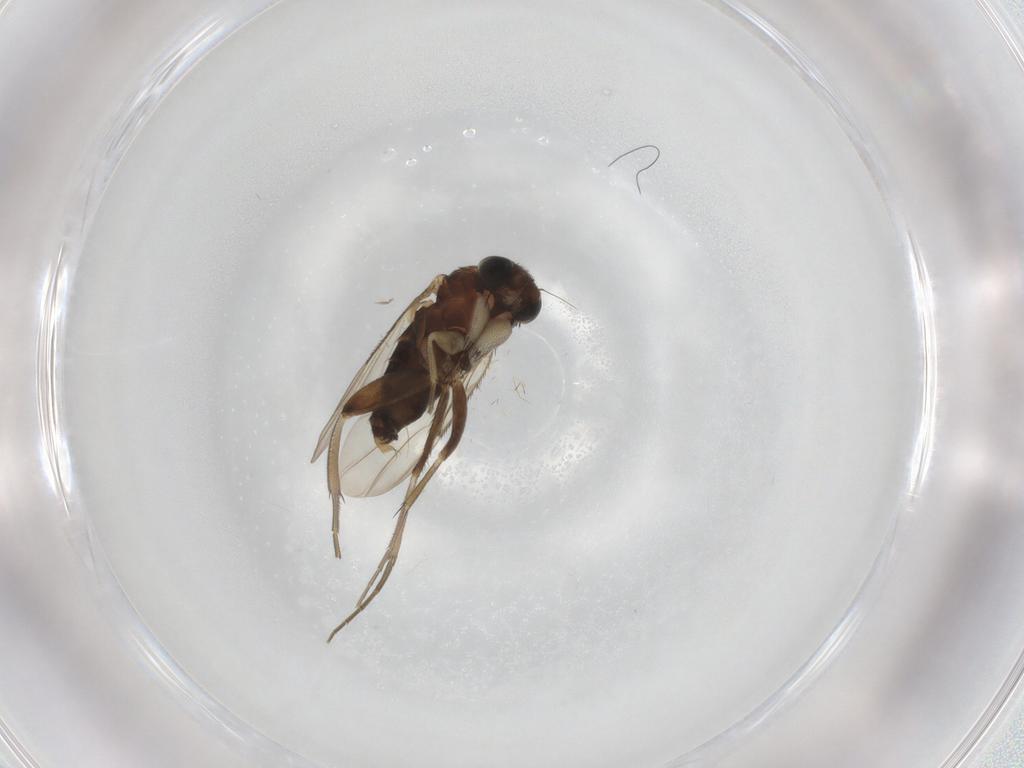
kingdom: Animalia
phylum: Arthropoda
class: Insecta
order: Diptera
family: Phoridae
